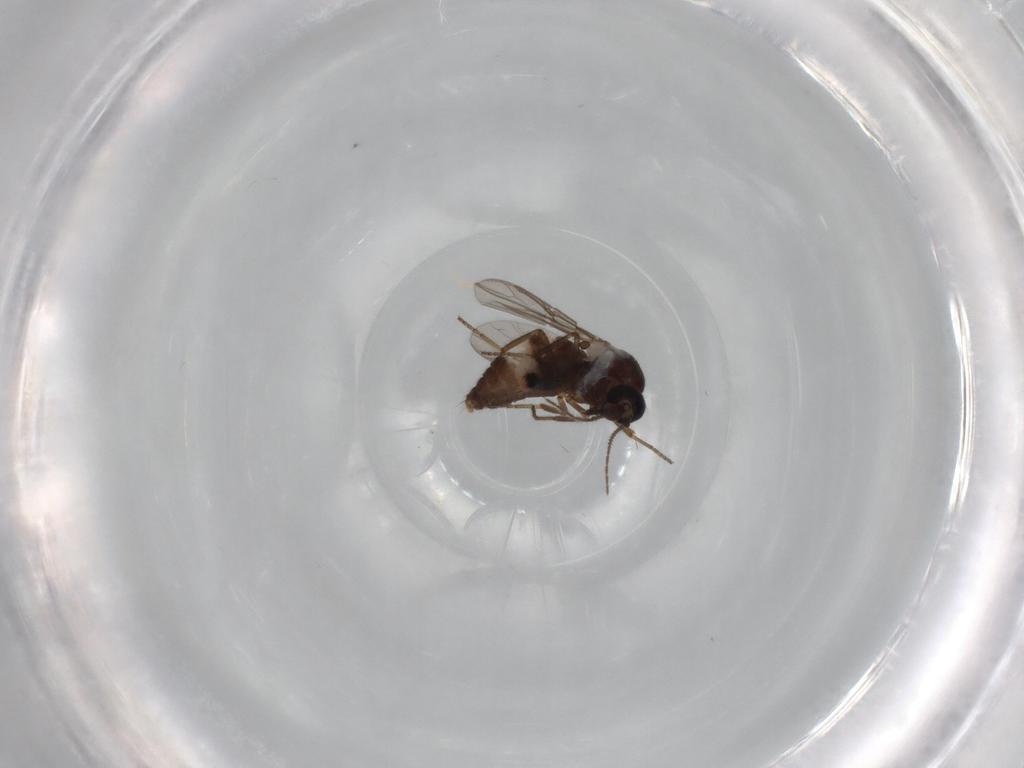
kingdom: Animalia
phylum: Arthropoda
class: Insecta
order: Diptera
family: Ceratopogonidae
